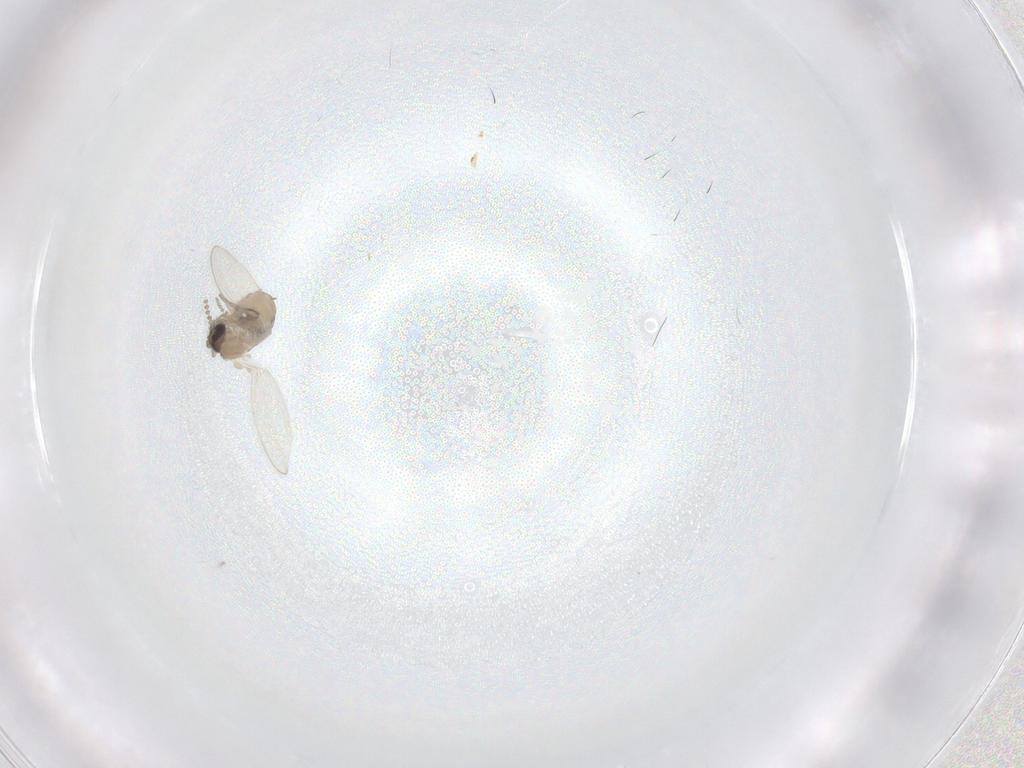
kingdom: Animalia
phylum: Arthropoda
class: Insecta
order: Diptera
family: Psychodidae
